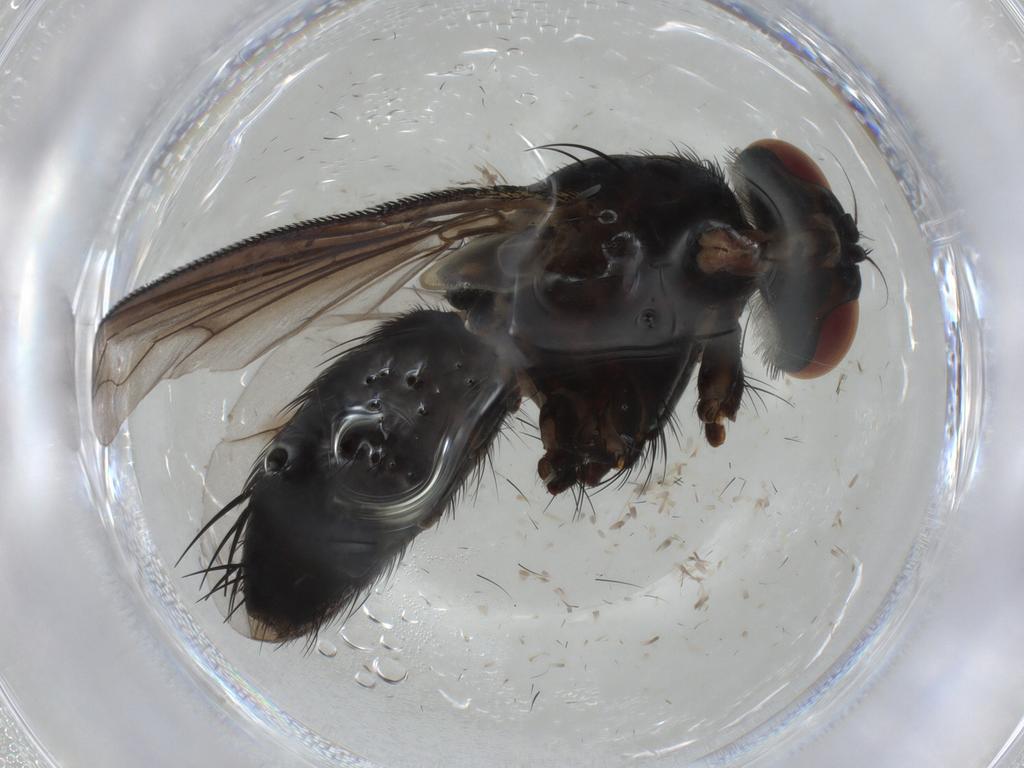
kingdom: Animalia
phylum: Arthropoda
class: Insecta
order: Diptera
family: Tachinidae
